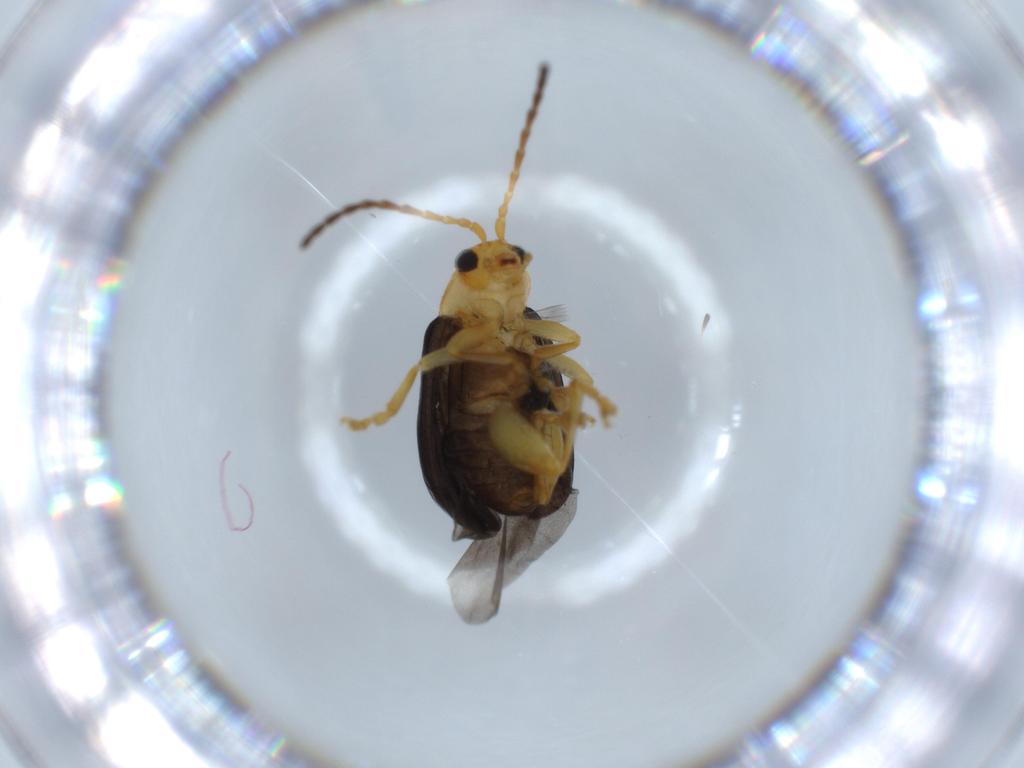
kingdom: Animalia
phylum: Arthropoda
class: Insecta
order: Coleoptera
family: Chrysomelidae
